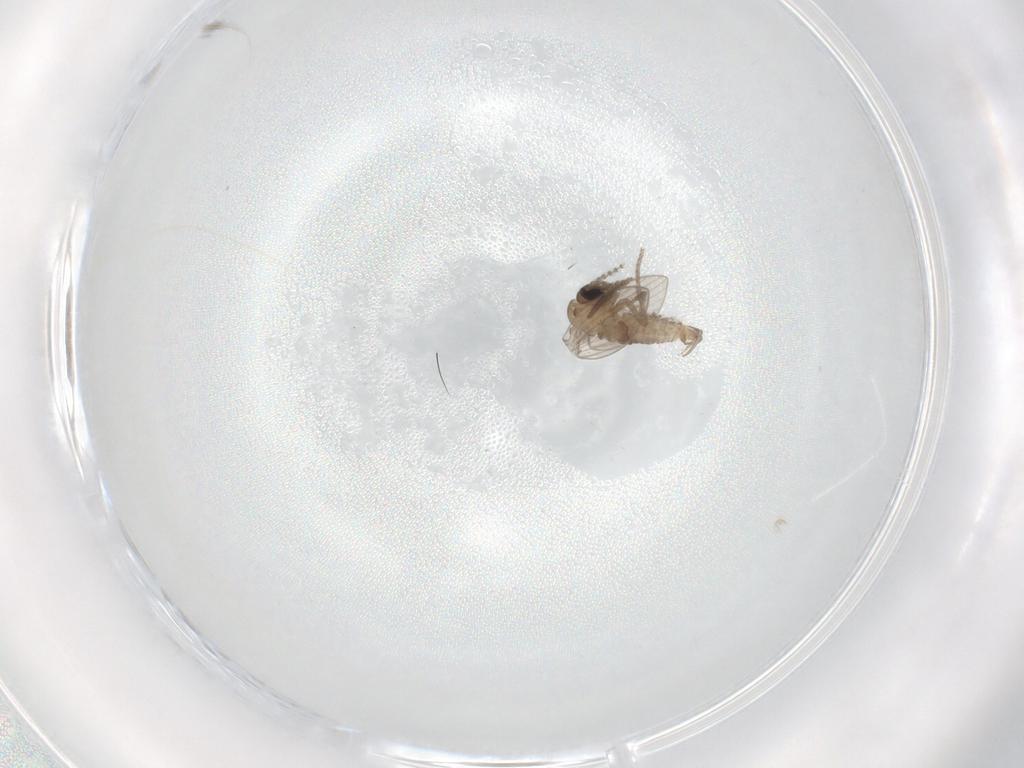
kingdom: Animalia
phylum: Arthropoda
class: Insecta
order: Diptera
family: Psychodidae
